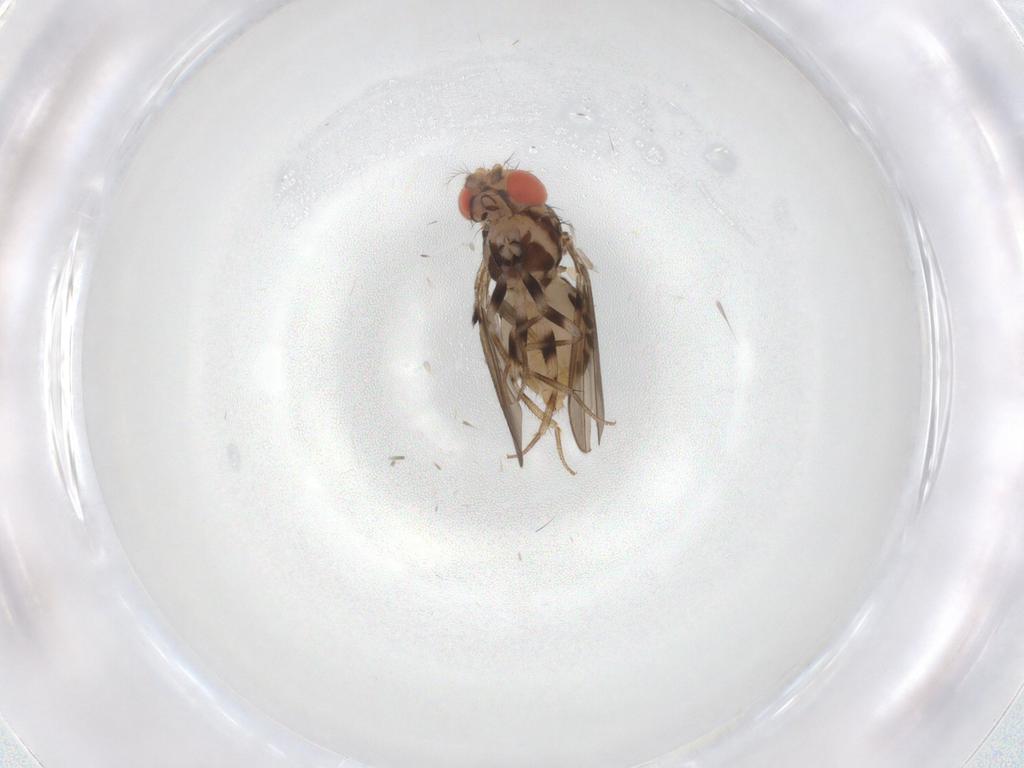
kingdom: Animalia
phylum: Arthropoda
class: Insecta
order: Diptera
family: Drosophilidae
